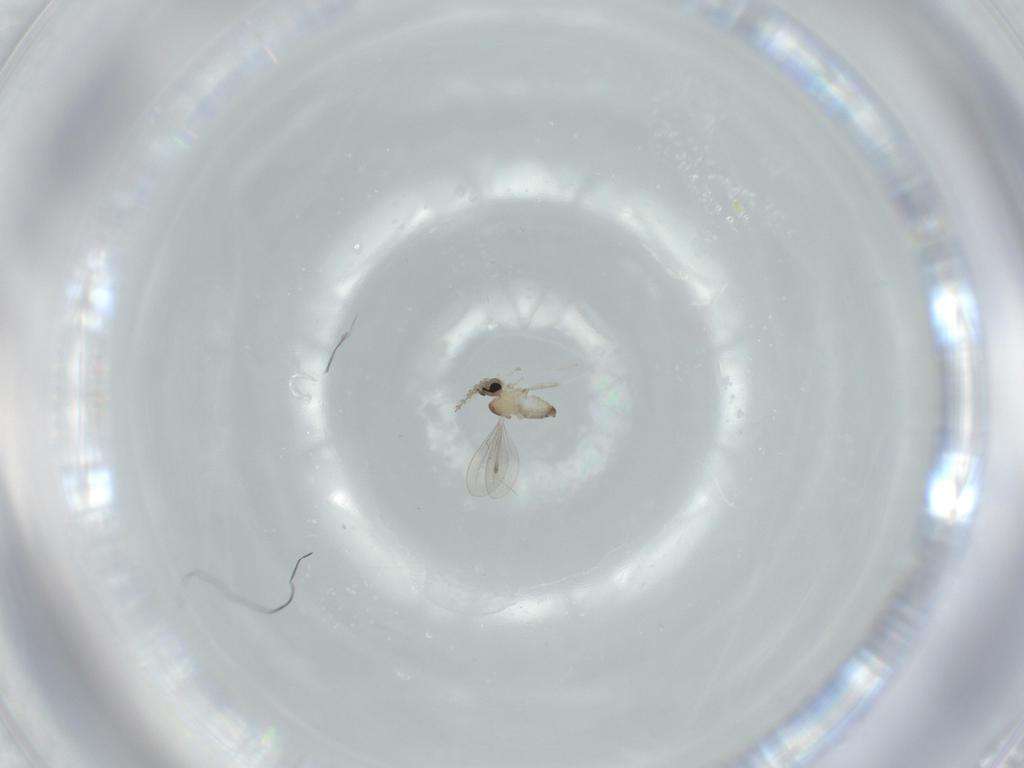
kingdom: Animalia
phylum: Arthropoda
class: Insecta
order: Diptera
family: Cecidomyiidae
